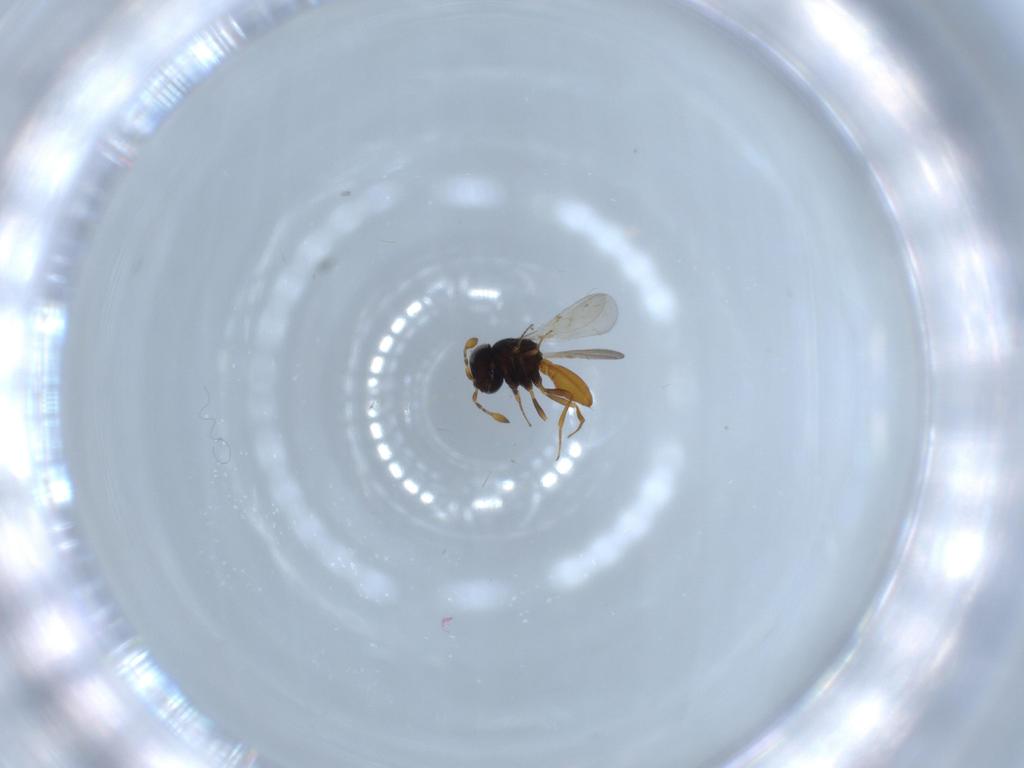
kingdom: Animalia
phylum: Arthropoda
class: Insecta
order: Hymenoptera
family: Scelionidae
